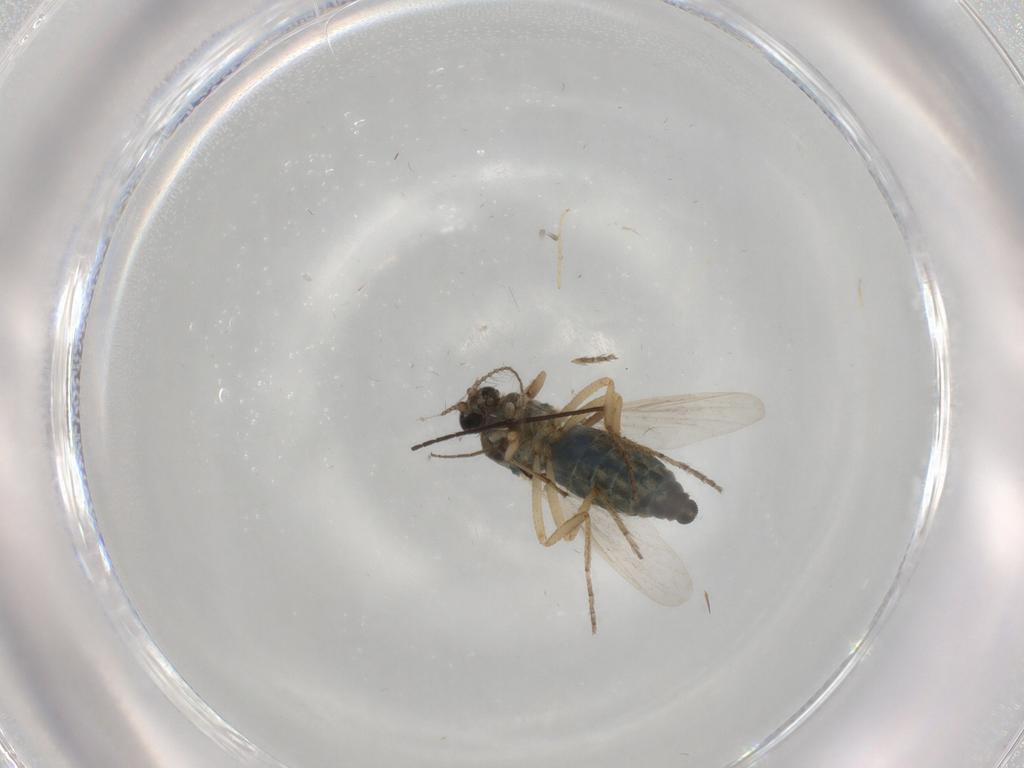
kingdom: Animalia
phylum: Arthropoda
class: Insecta
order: Diptera
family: Ceratopogonidae
